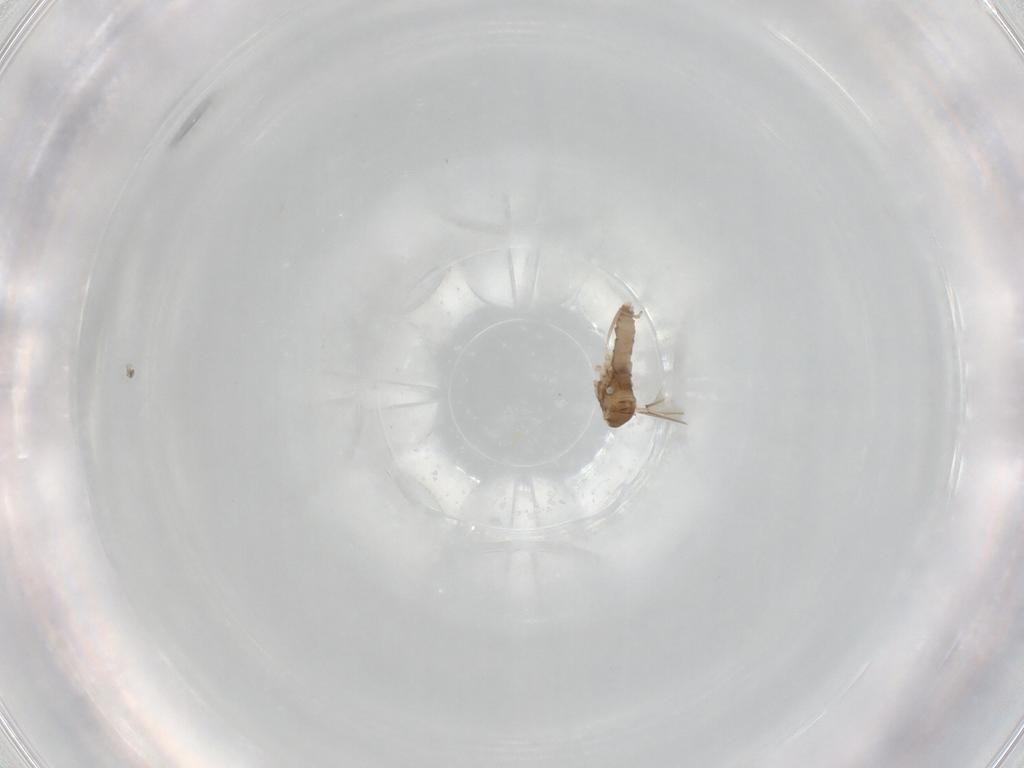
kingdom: Animalia
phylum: Arthropoda
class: Insecta
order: Diptera
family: Cecidomyiidae
